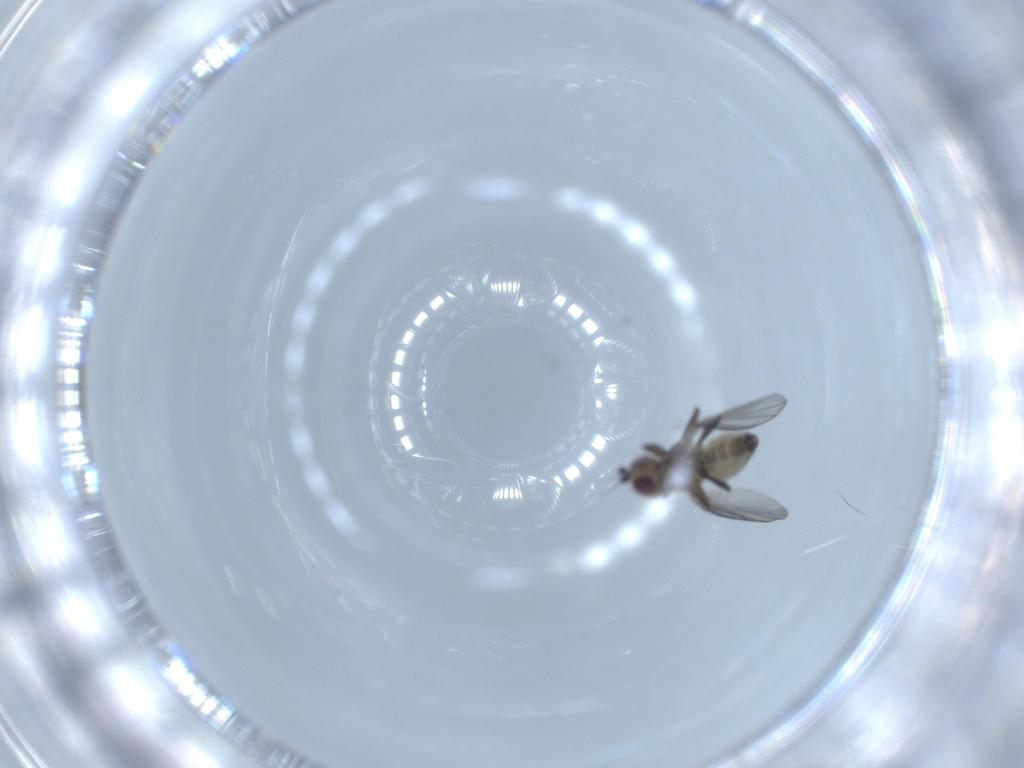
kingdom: Animalia
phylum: Arthropoda
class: Insecta
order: Diptera
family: Agromyzidae
